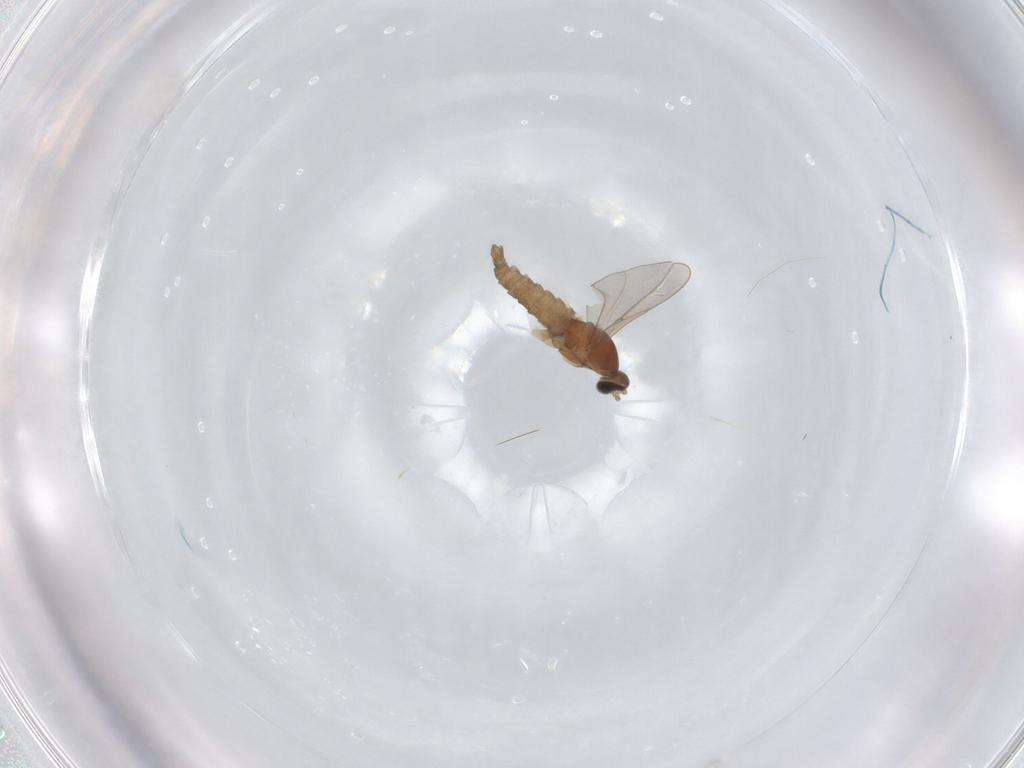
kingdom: Animalia
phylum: Arthropoda
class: Insecta
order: Diptera
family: Cecidomyiidae
